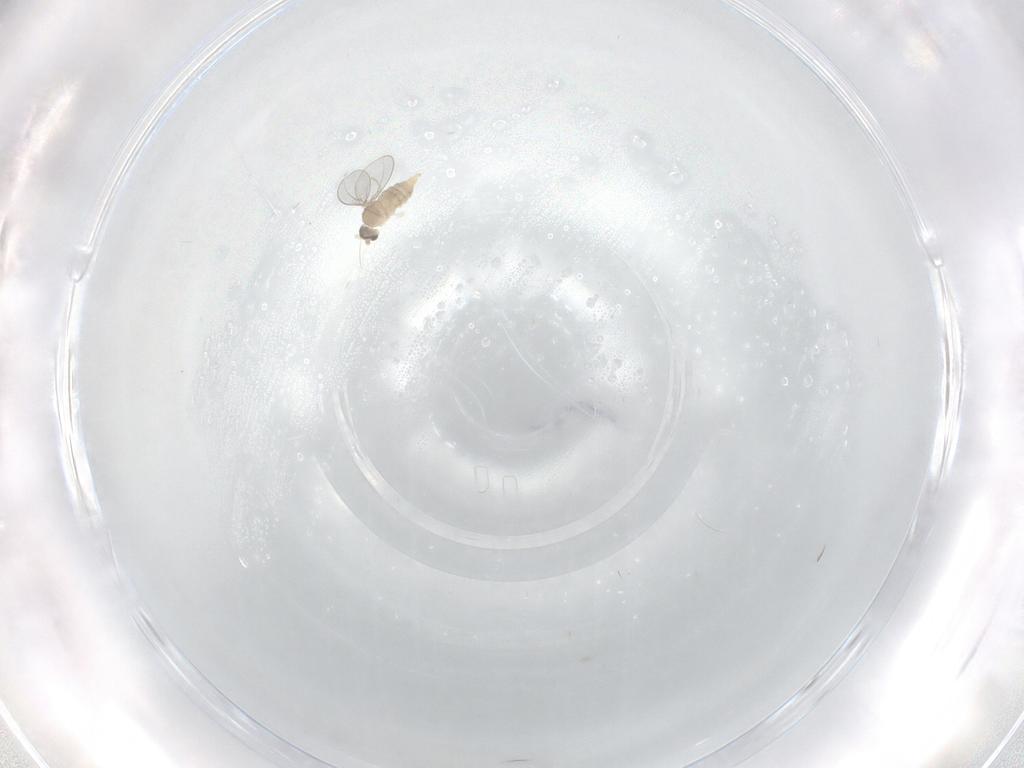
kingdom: Animalia
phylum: Arthropoda
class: Insecta
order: Diptera
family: Cecidomyiidae
